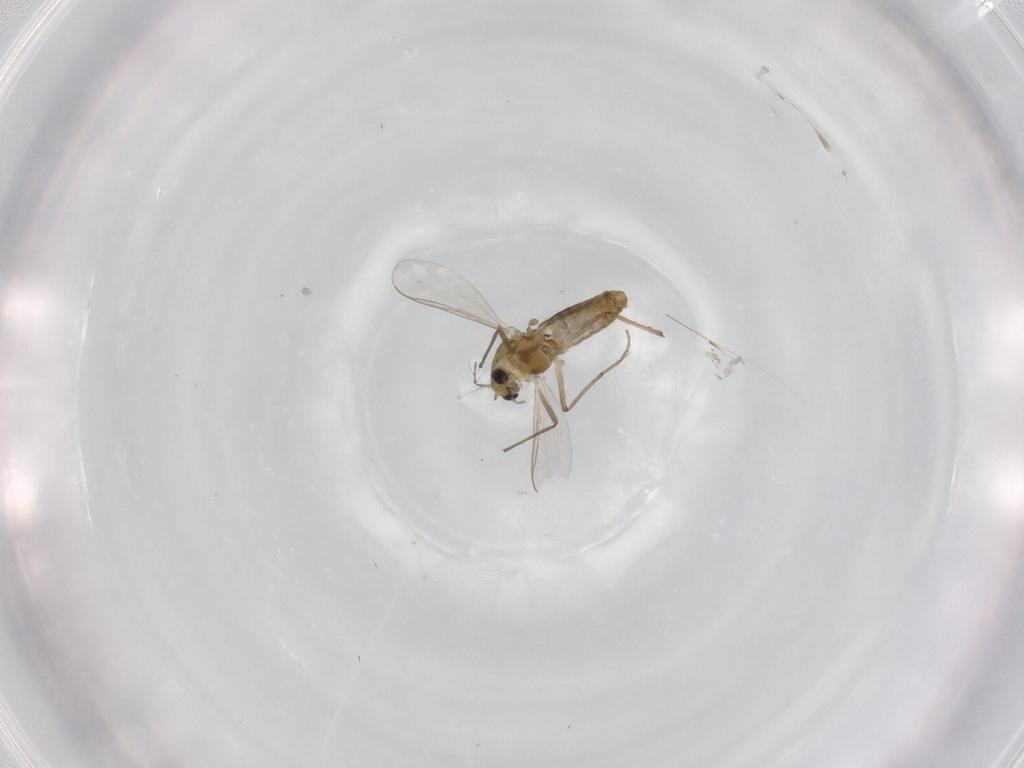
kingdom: Animalia
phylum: Arthropoda
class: Insecta
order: Diptera
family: Chironomidae
